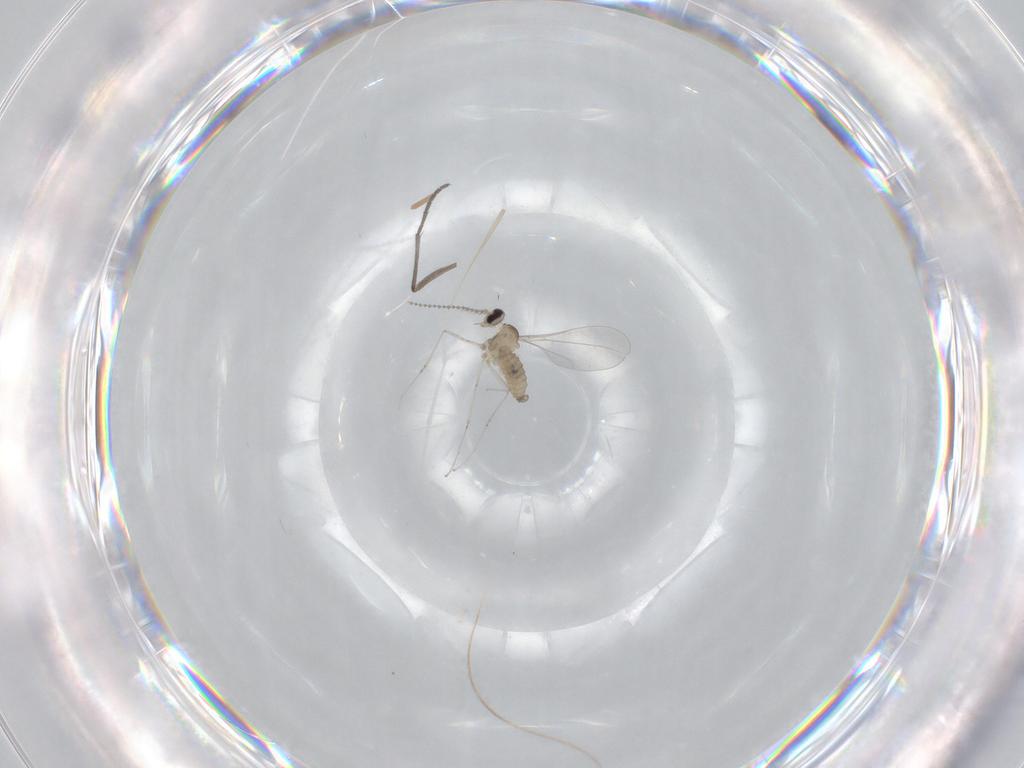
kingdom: Animalia
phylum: Arthropoda
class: Insecta
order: Diptera
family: Cecidomyiidae
